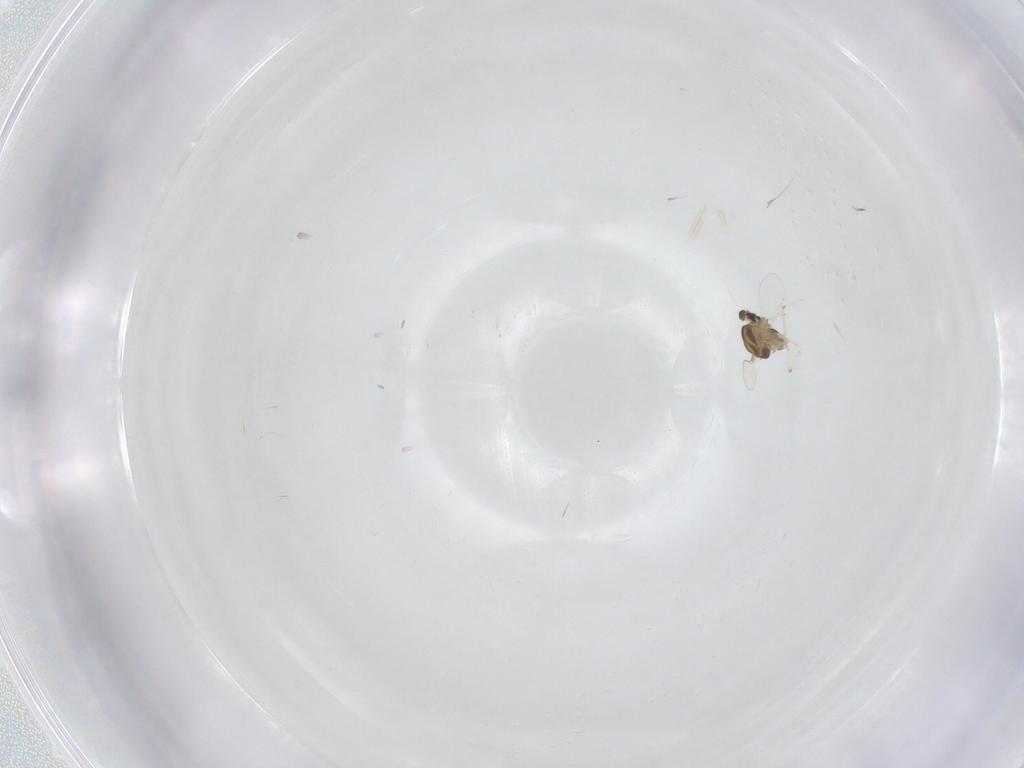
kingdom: Animalia
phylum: Arthropoda
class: Insecta
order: Diptera
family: Chironomidae
